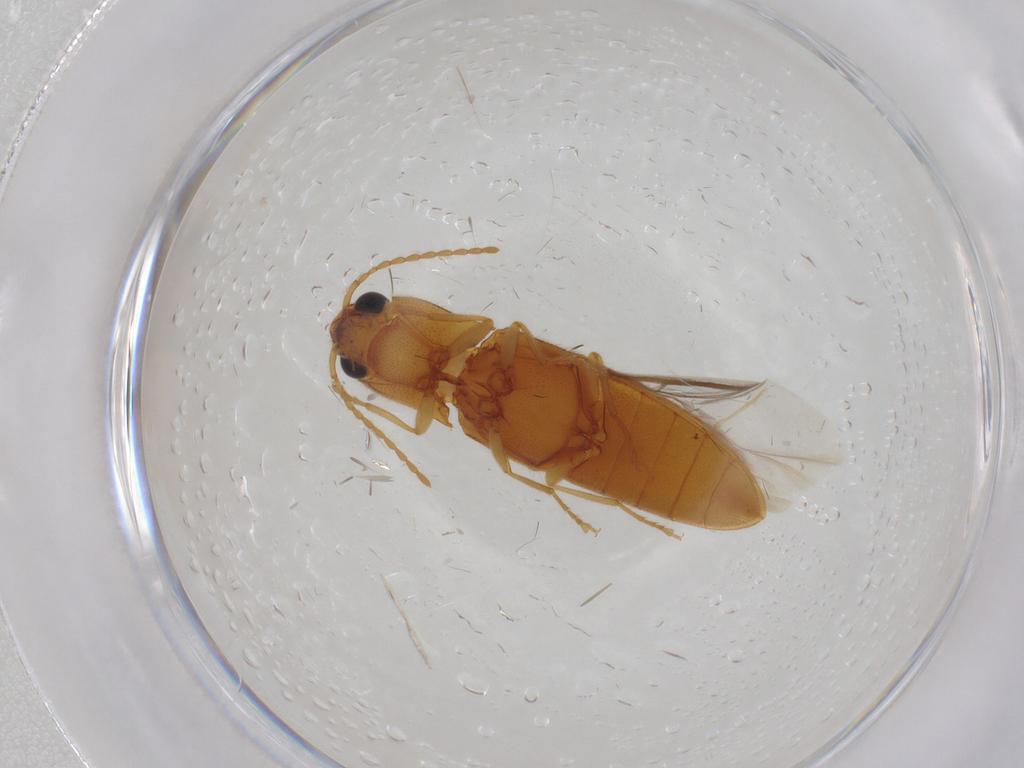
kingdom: Animalia
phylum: Arthropoda
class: Insecta
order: Coleoptera
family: Elateridae
